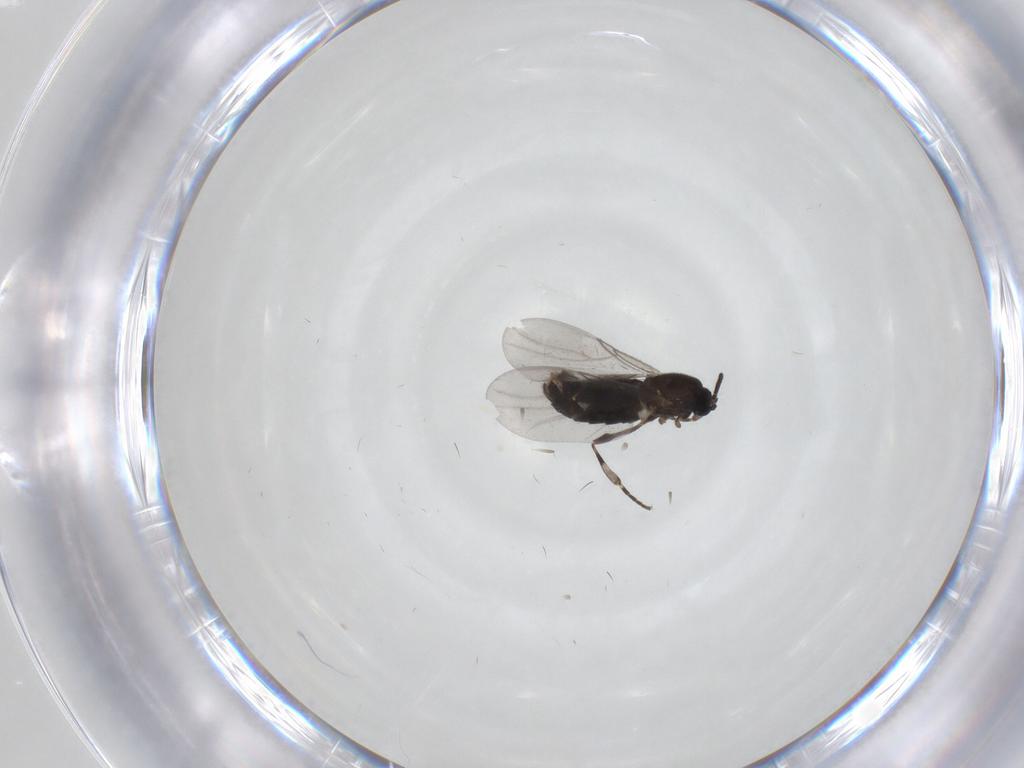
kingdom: Animalia
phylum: Arthropoda
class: Insecta
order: Diptera
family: Scatopsidae
